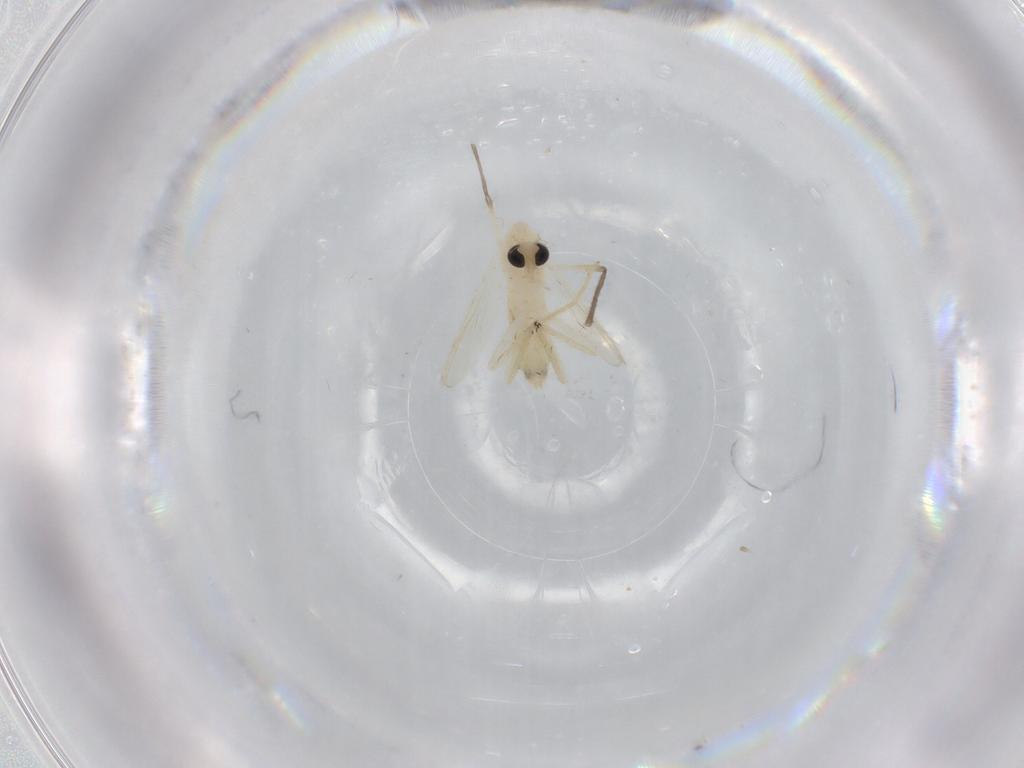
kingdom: Animalia
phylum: Arthropoda
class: Insecta
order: Diptera
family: Chironomidae
